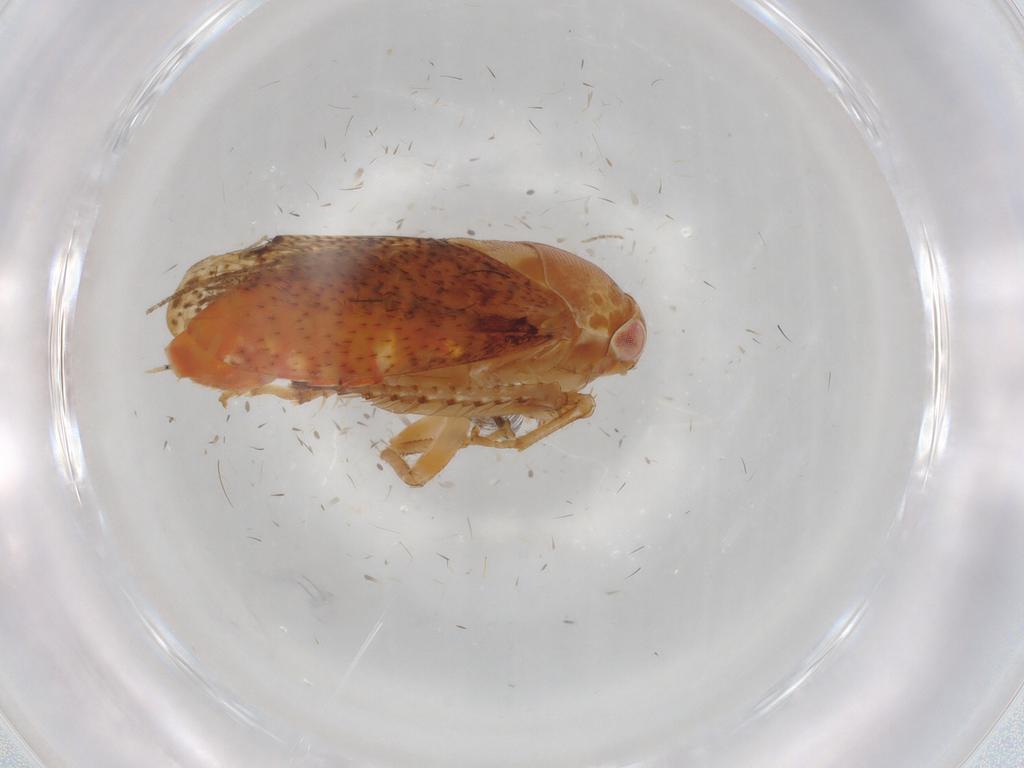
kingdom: Animalia
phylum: Arthropoda
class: Insecta
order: Hemiptera
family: Cicadellidae
